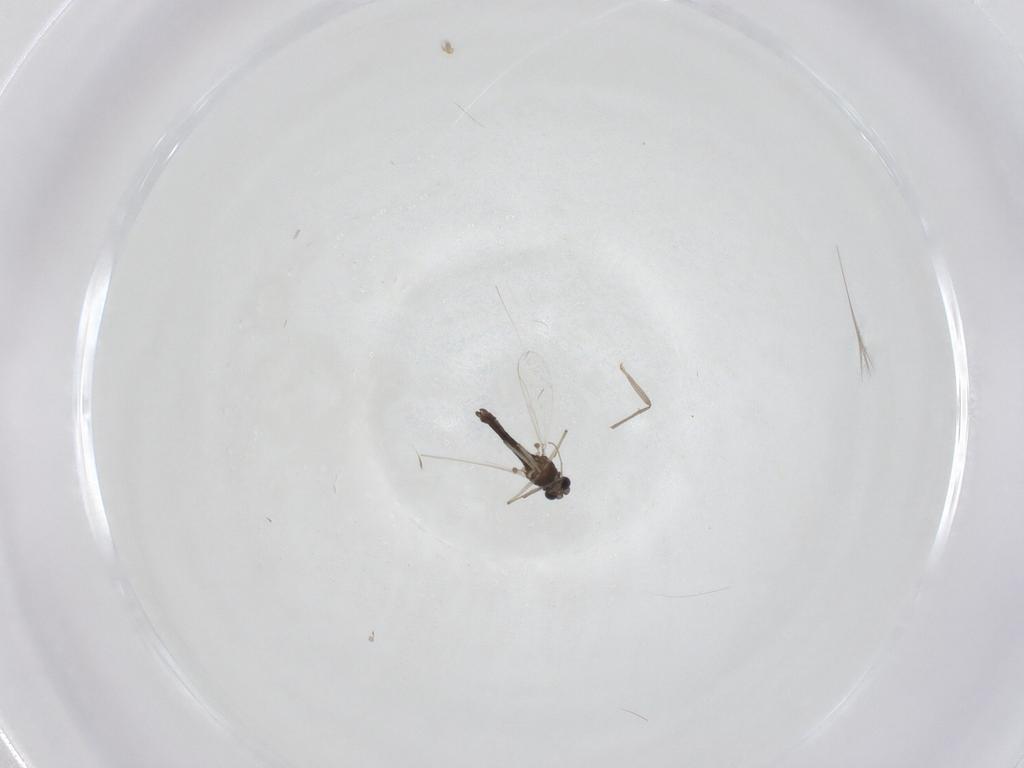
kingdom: Animalia
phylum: Arthropoda
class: Insecta
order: Diptera
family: Chironomidae
